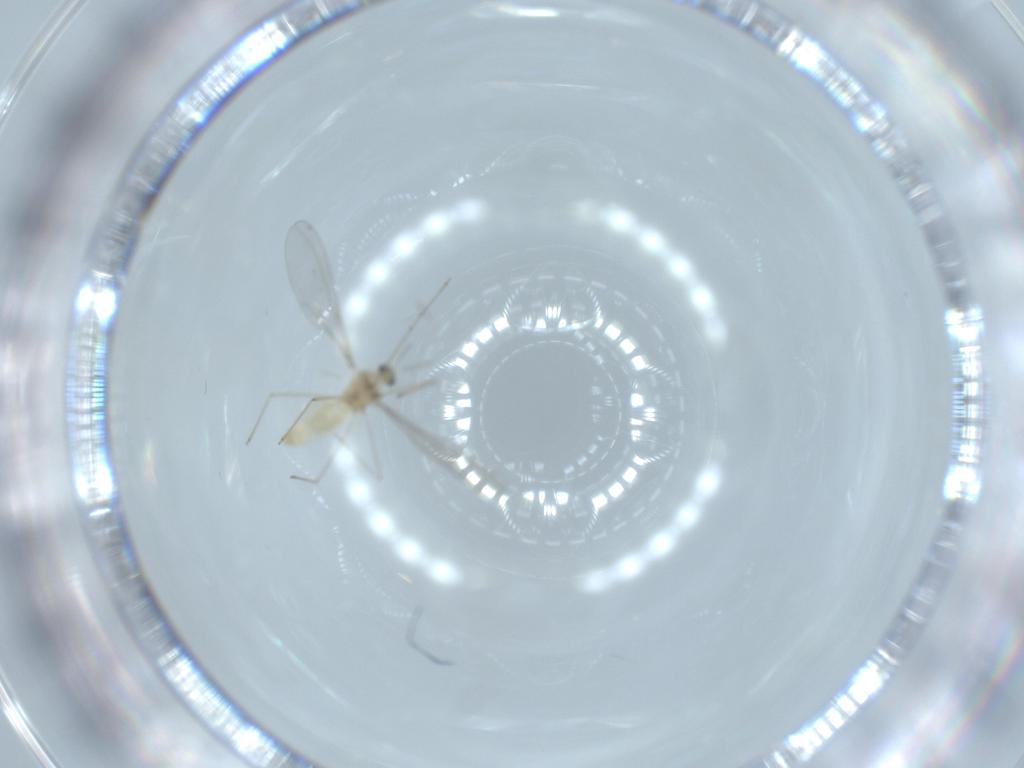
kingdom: Animalia
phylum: Arthropoda
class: Insecta
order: Diptera
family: Cecidomyiidae
